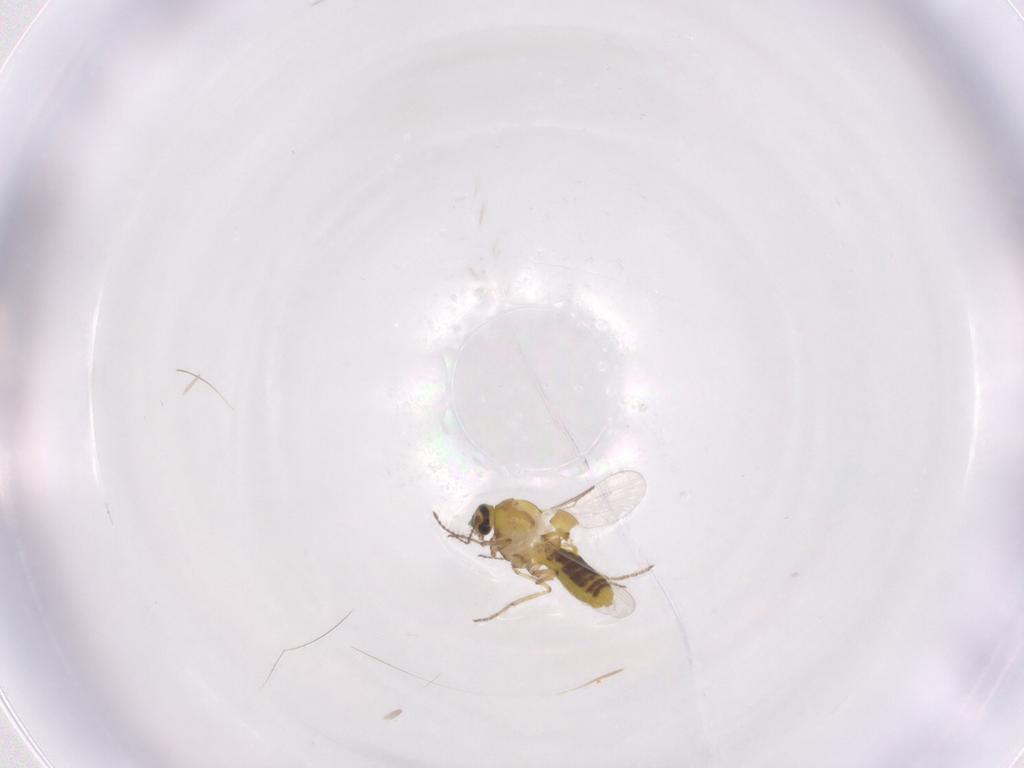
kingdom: Animalia
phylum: Arthropoda
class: Insecta
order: Diptera
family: Ceratopogonidae
